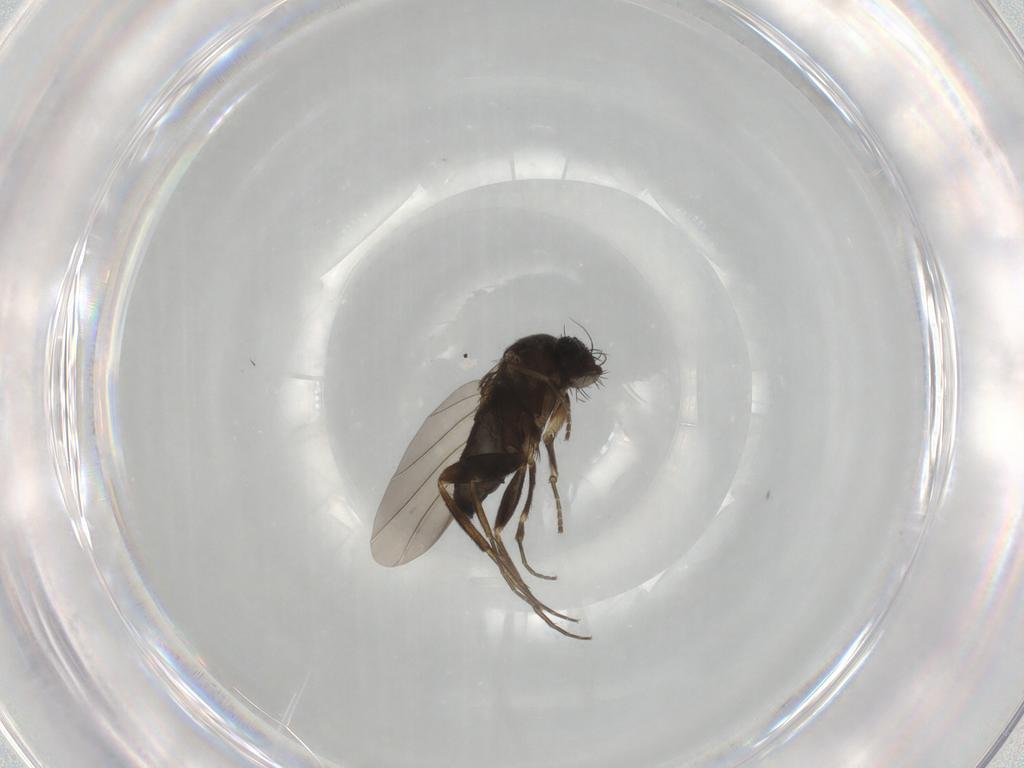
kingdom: Animalia
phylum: Arthropoda
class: Insecta
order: Diptera
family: Phoridae
